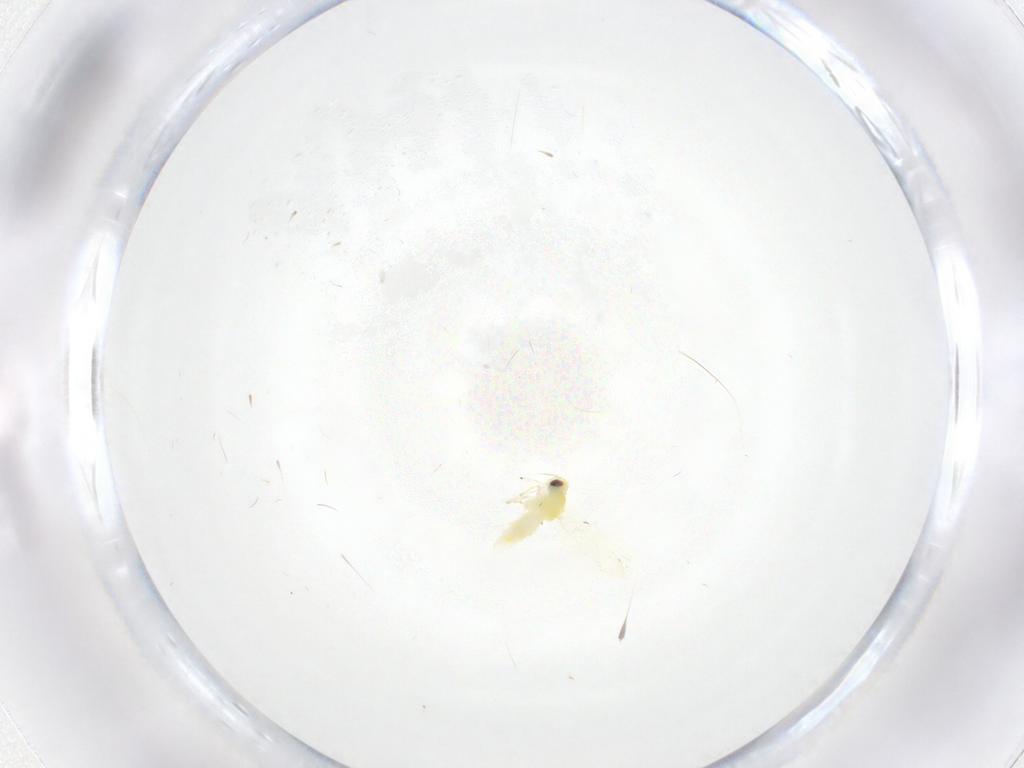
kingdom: Animalia
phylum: Arthropoda
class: Insecta
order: Hemiptera
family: Aleyrodidae
